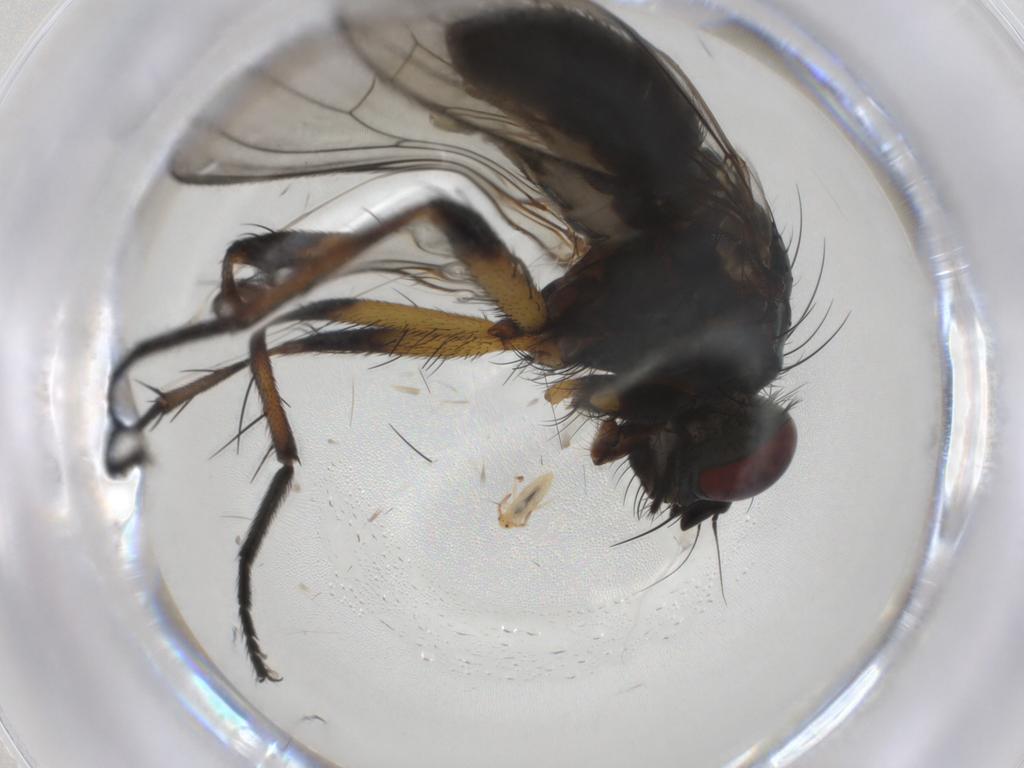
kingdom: Animalia
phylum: Arthropoda
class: Insecta
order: Diptera
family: Muscidae
